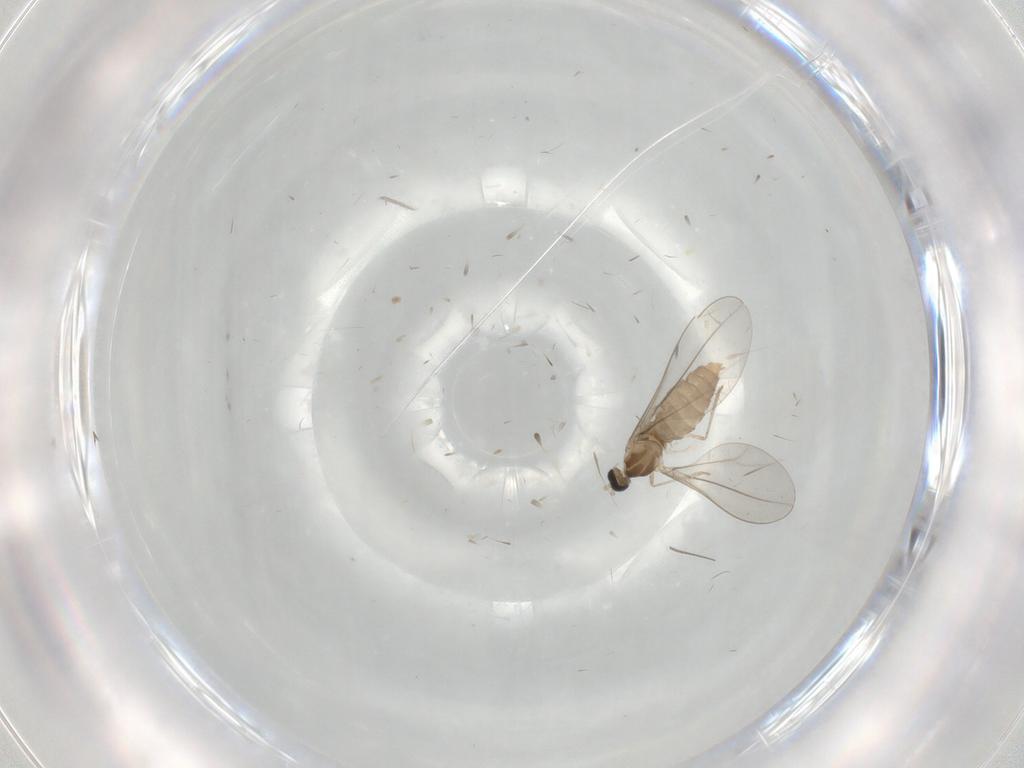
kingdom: Animalia
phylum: Arthropoda
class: Insecta
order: Diptera
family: Cecidomyiidae
